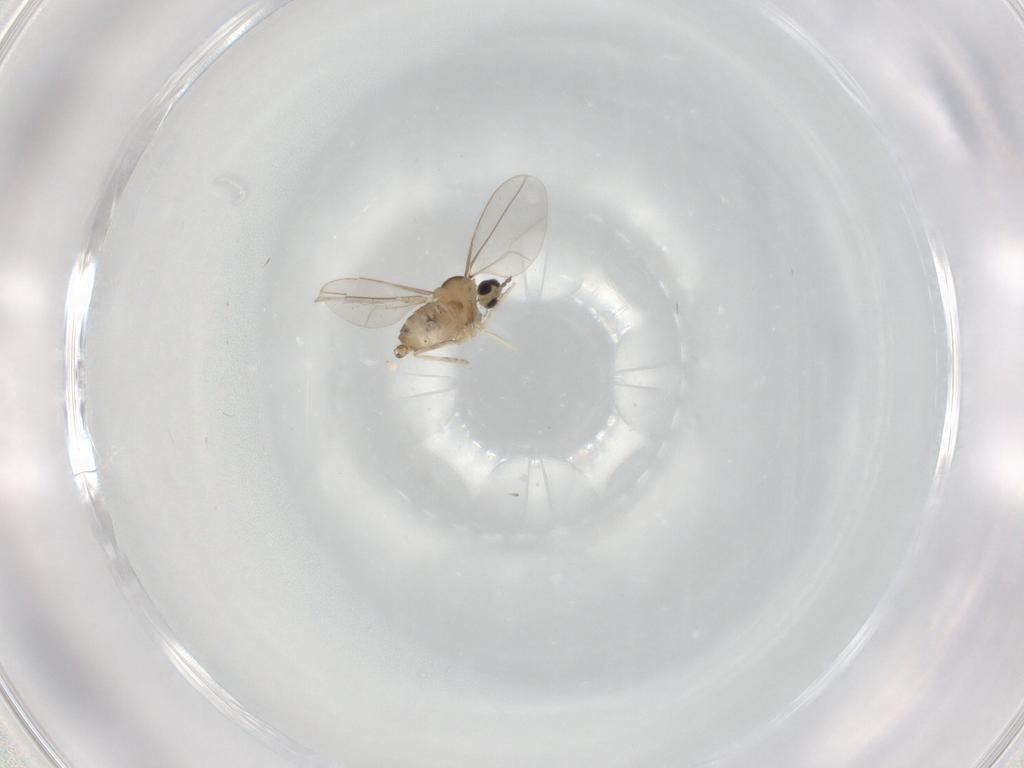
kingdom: Animalia
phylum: Arthropoda
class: Insecta
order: Diptera
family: Cecidomyiidae
